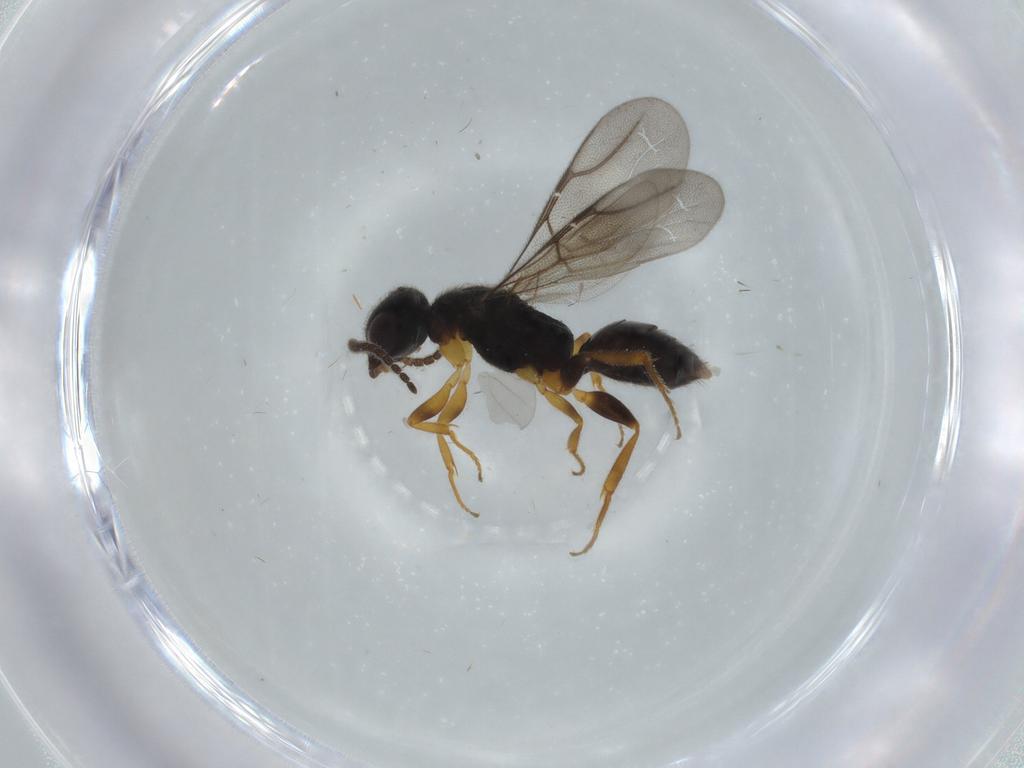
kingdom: Animalia
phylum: Arthropoda
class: Insecta
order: Hymenoptera
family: Bethylidae
